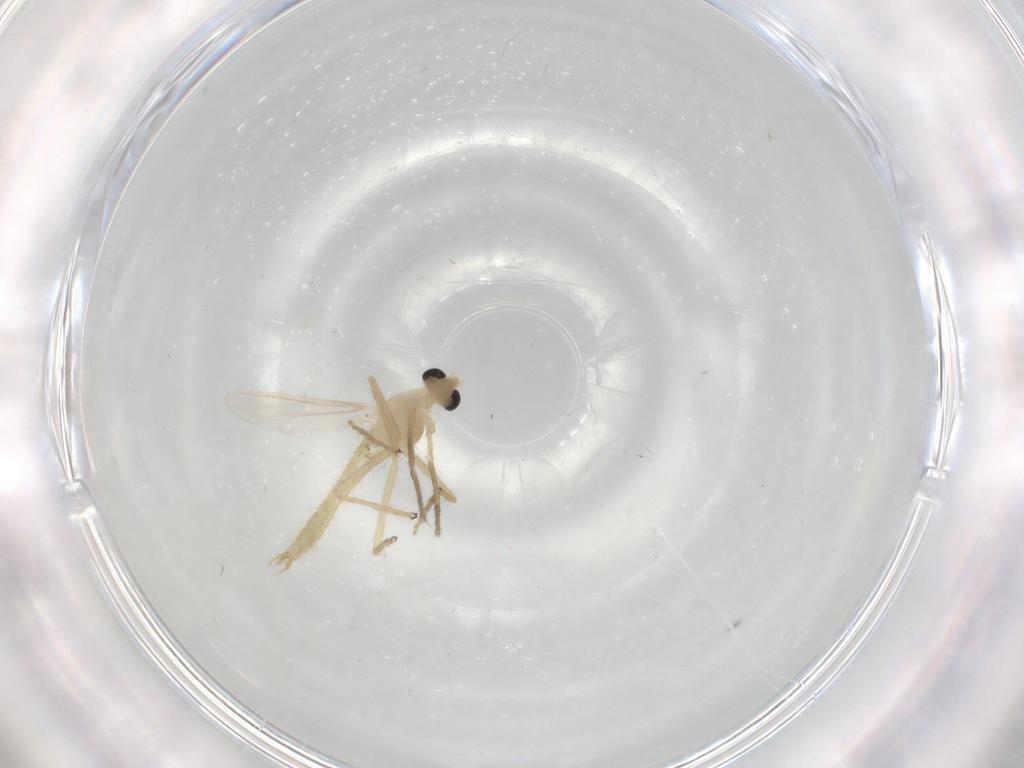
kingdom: Animalia
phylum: Arthropoda
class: Insecta
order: Diptera
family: Chironomidae
